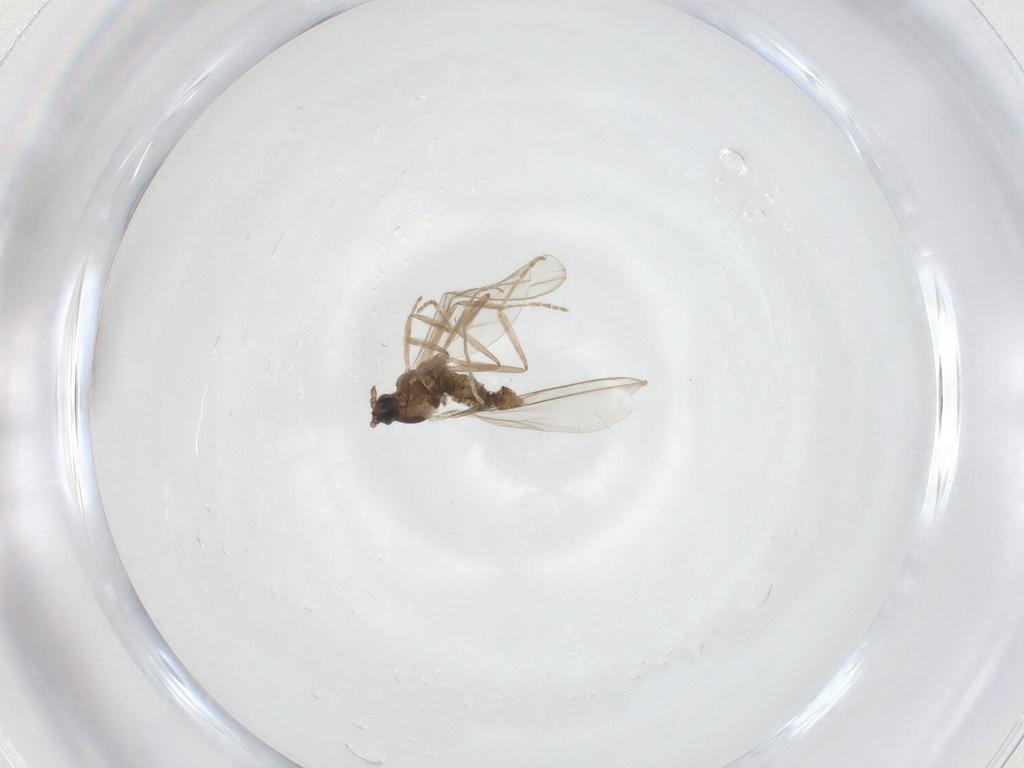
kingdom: Animalia
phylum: Arthropoda
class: Insecta
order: Diptera
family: Cecidomyiidae
